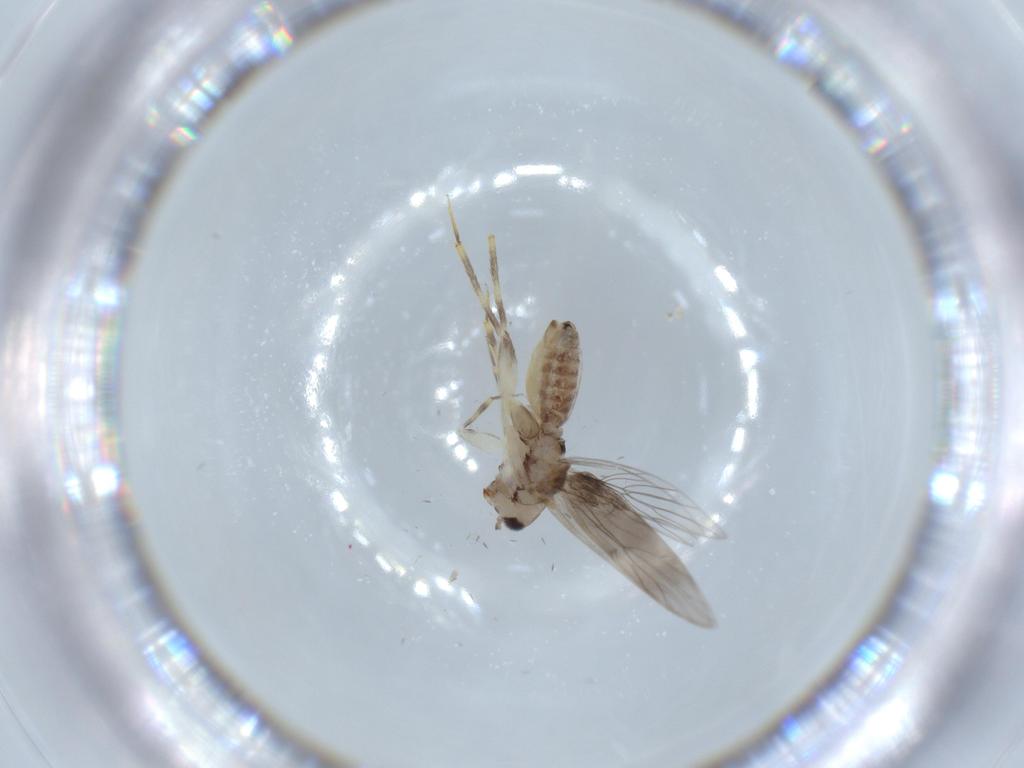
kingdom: Animalia
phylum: Arthropoda
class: Insecta
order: Psocodea
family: Lepidopsocidae
